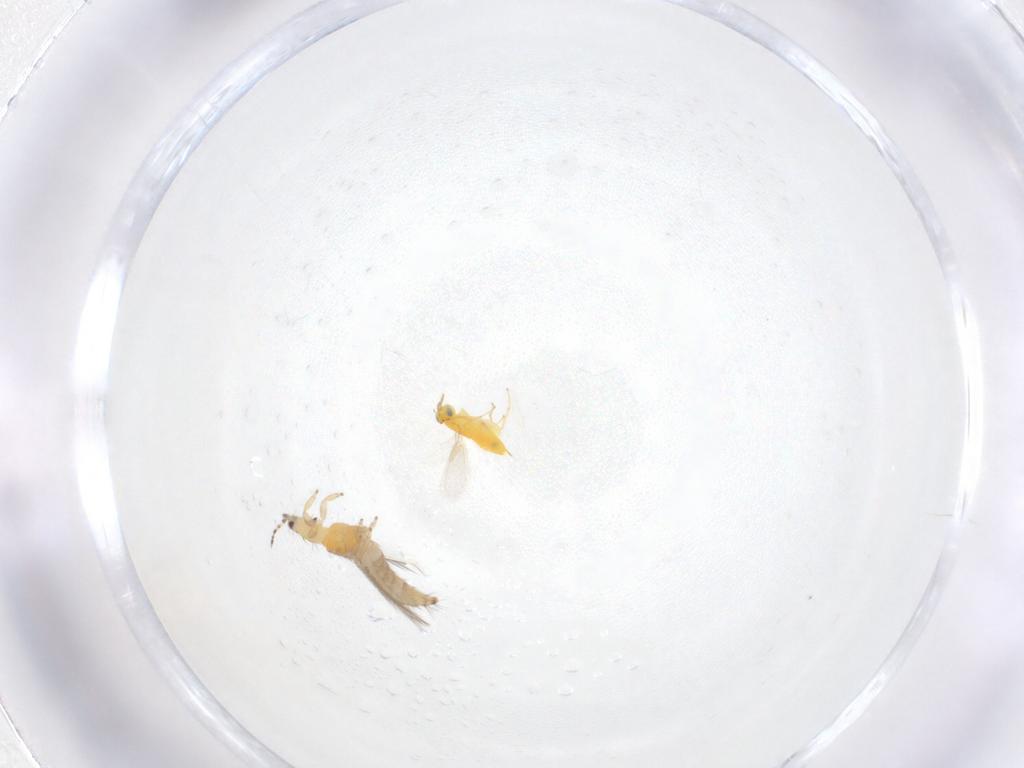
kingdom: Animalia
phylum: Arthropoda
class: Insecta
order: Hymenoptera
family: Aphelinidae
